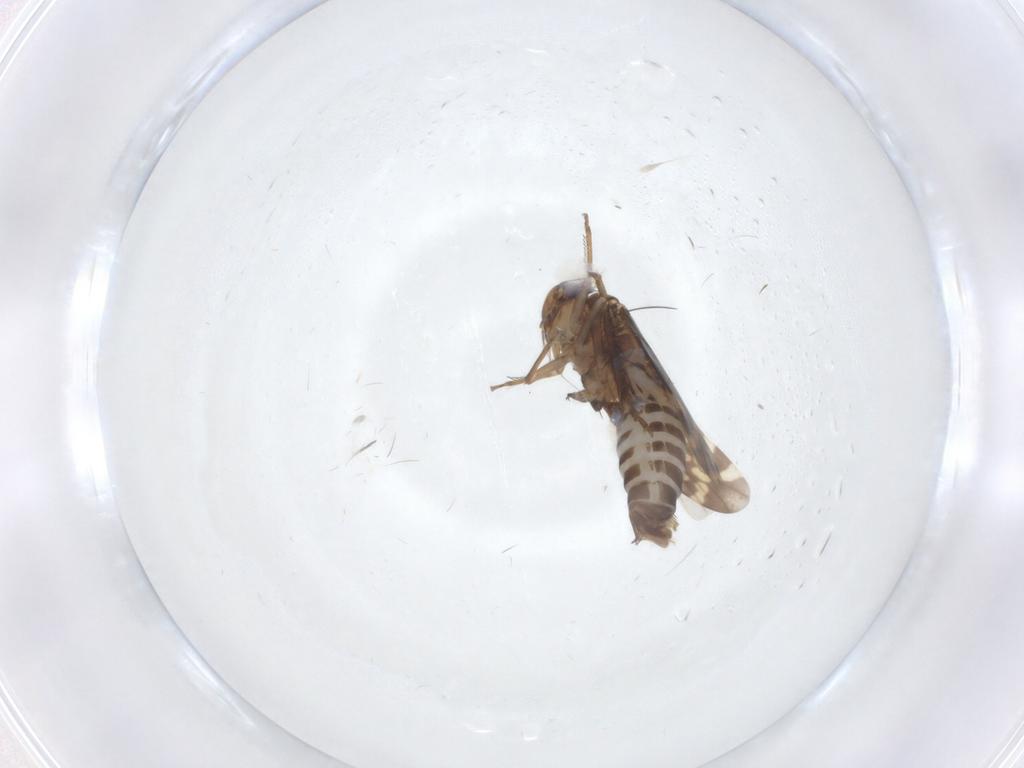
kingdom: Animalia
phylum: Arthropoda
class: Insecta
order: Hemiptera
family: Cicadellidae
